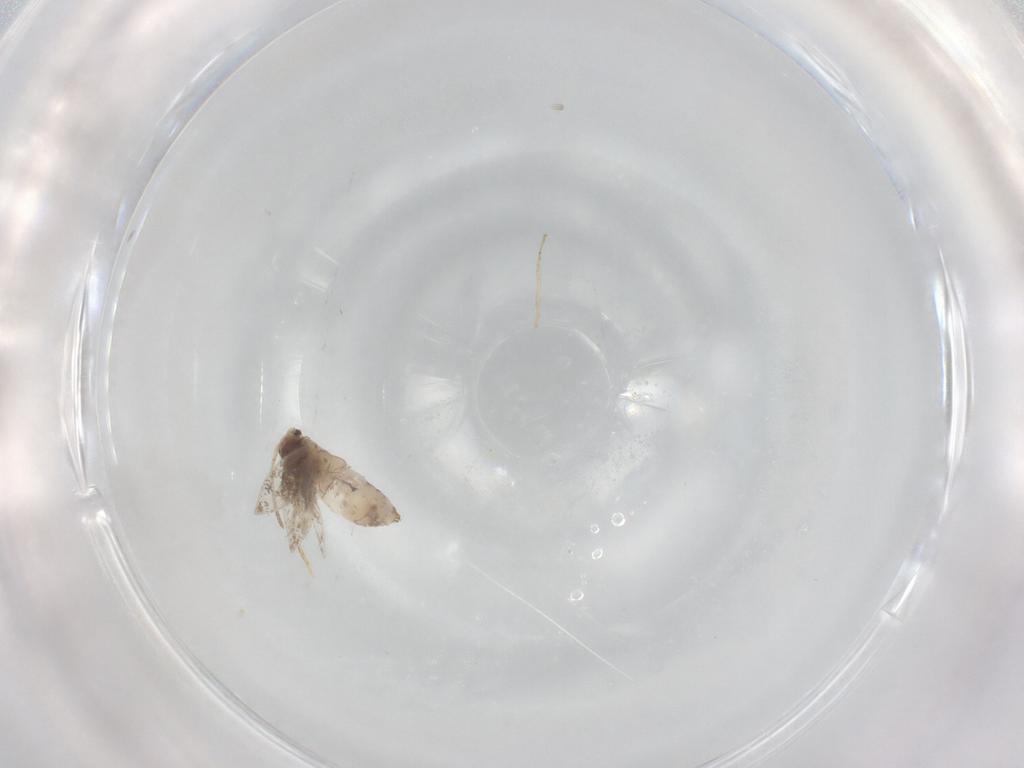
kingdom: Animalia
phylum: Arthropoda
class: Insecta
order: Lepidoptera
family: Nepticulidae
